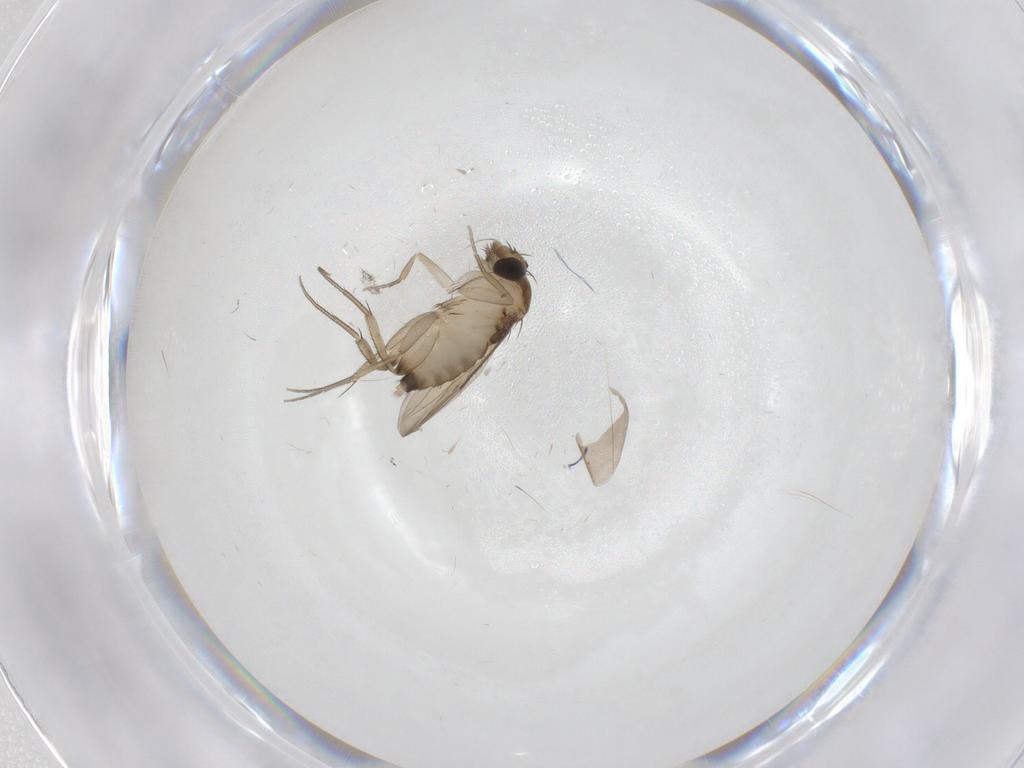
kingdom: Animalia
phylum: Arthropoda
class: Insecta
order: Diptera
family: Phoridae
